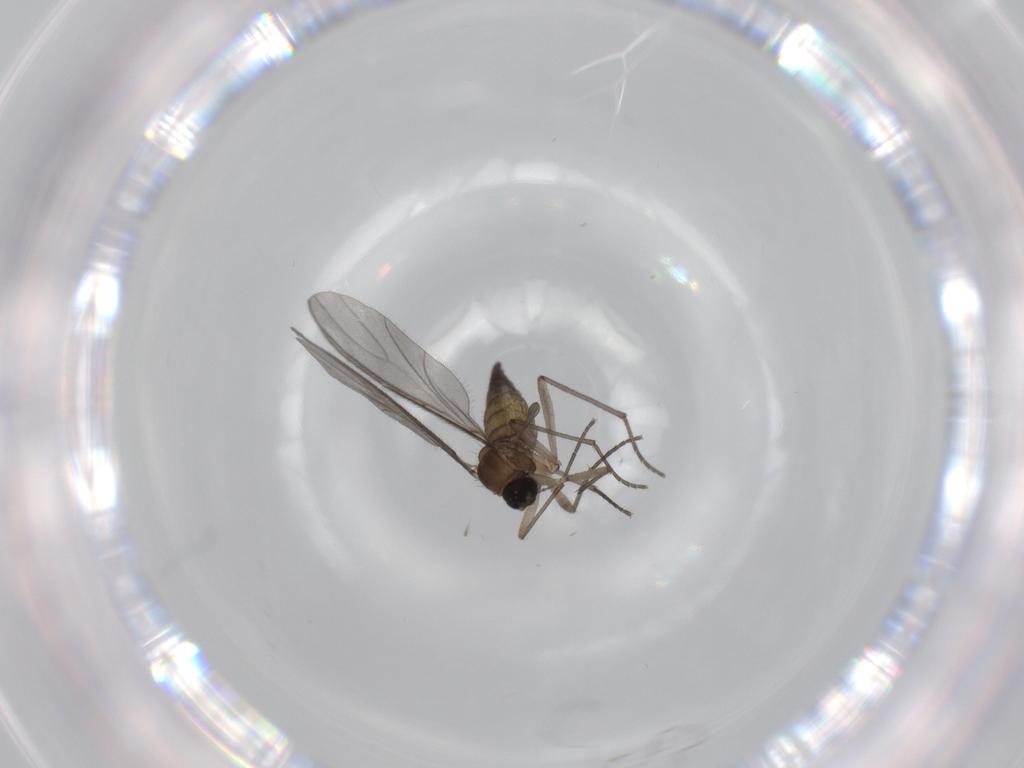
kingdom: Animalia
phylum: Arthropoda
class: Insecta
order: Diptera
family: Sciaridae
